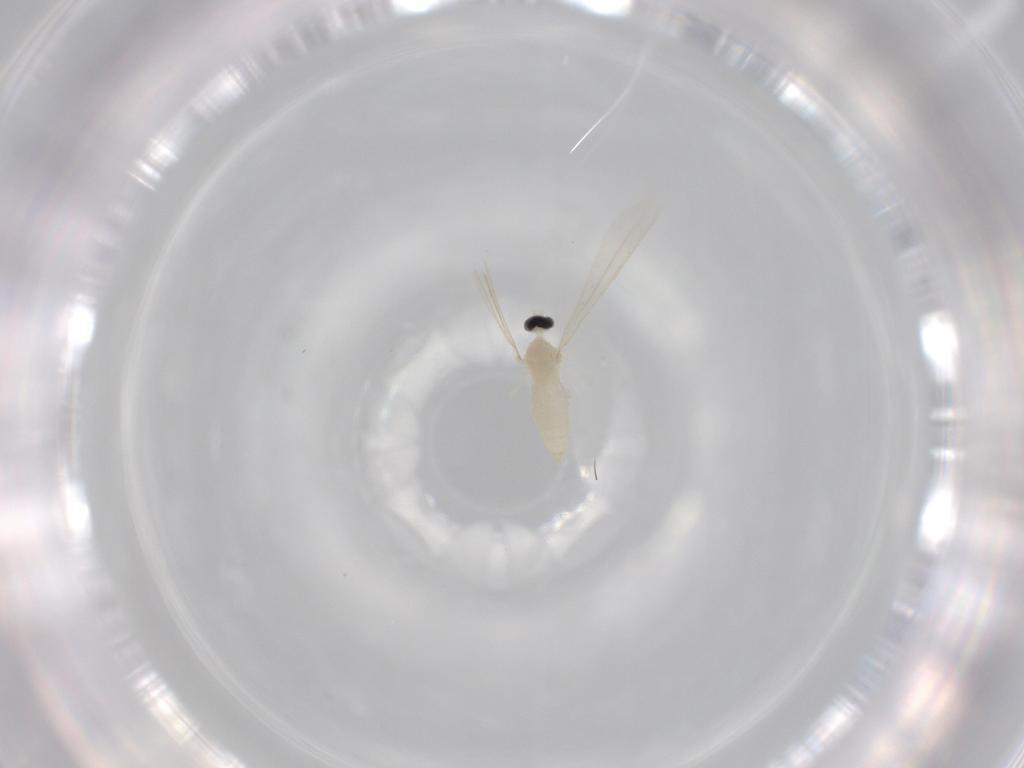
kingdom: Animalia
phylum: Arthropoda
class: Insecta
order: Diptera
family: Cecidomyiidae
